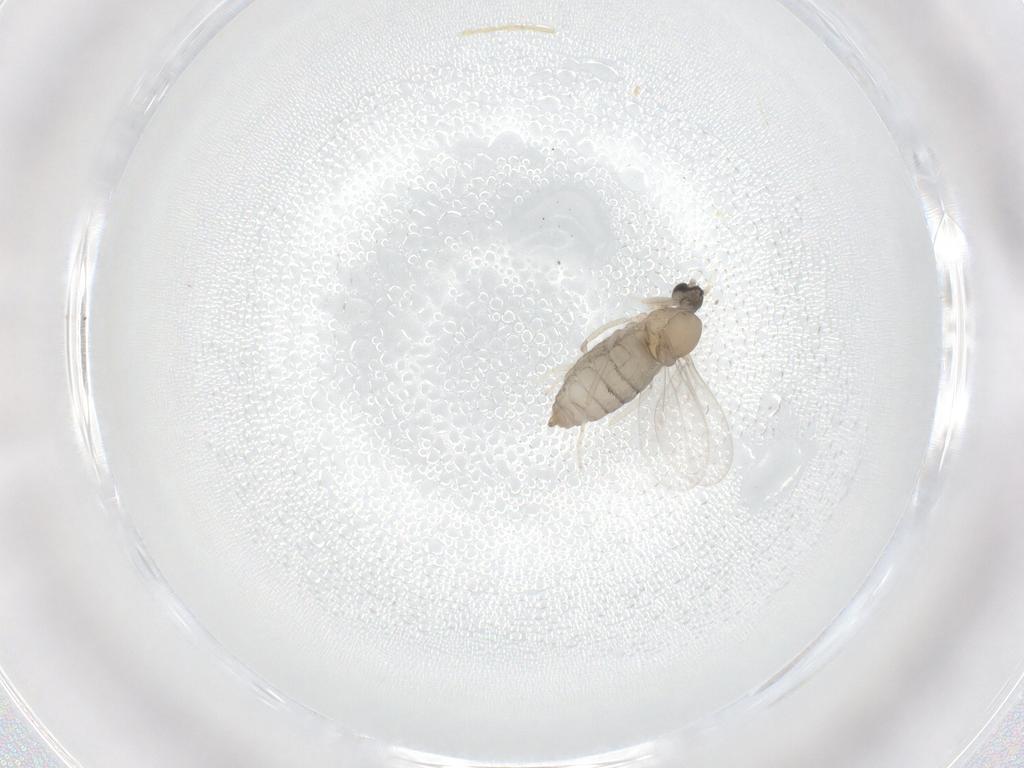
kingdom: Animalia
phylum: Arthropoda
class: Insecta
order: Diptera
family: Cecidomyiidae
